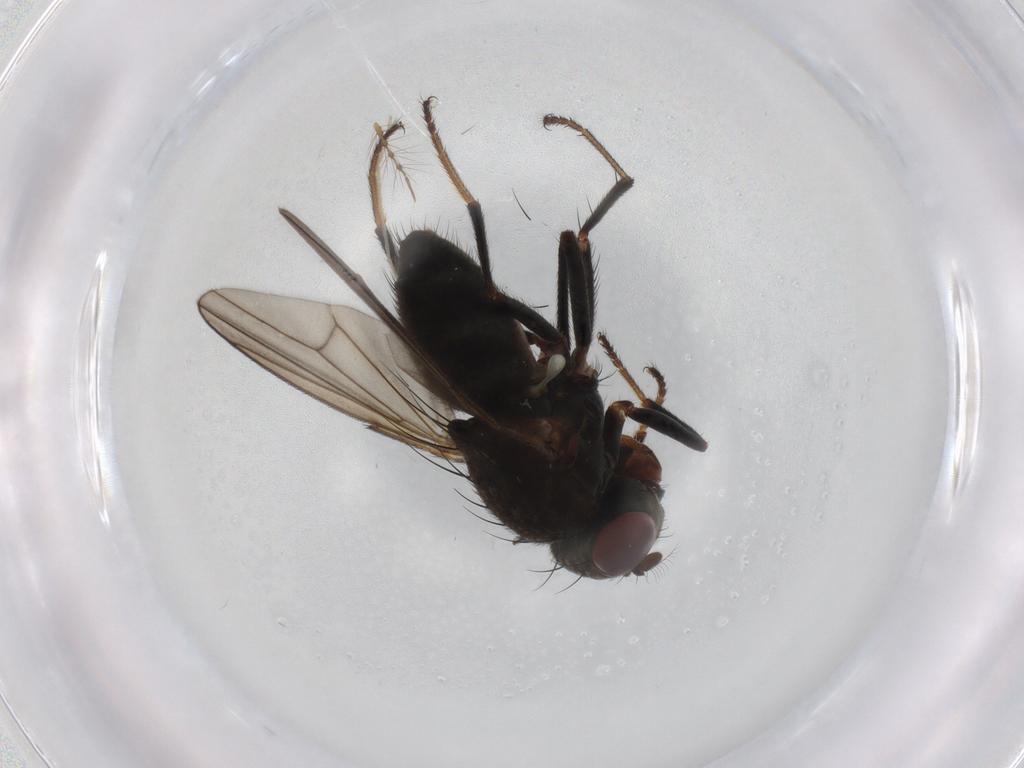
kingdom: Animalia
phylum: Arthropoda
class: Insecta
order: Diptera
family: Ephydridae
